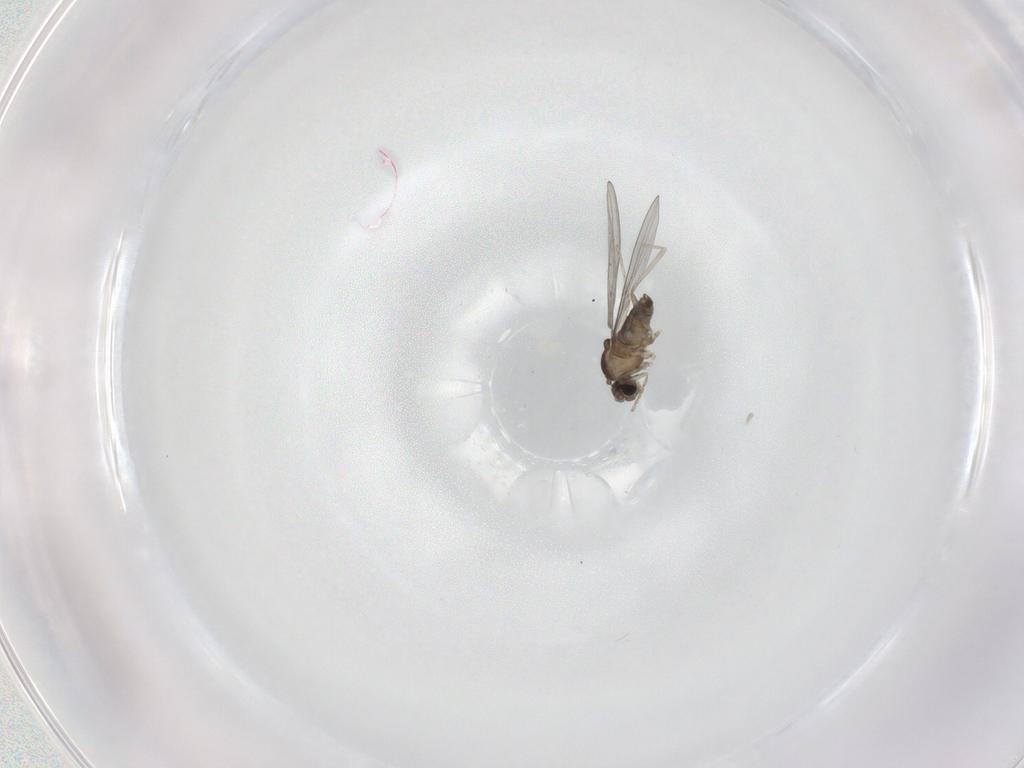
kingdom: Animalia
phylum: Arthropoda
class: Insecta
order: Diptera
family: Cecidomyiidae
